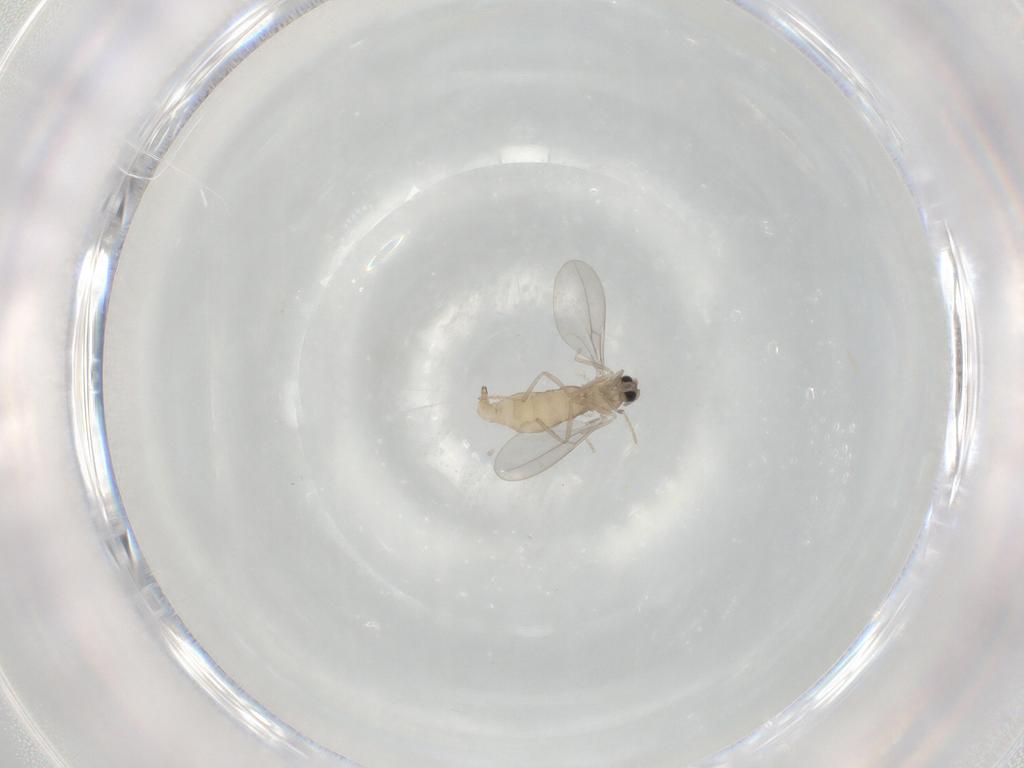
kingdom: Animalia
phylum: Arthropoda
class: Insecta
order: Diptera
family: Cecidomyiidae
